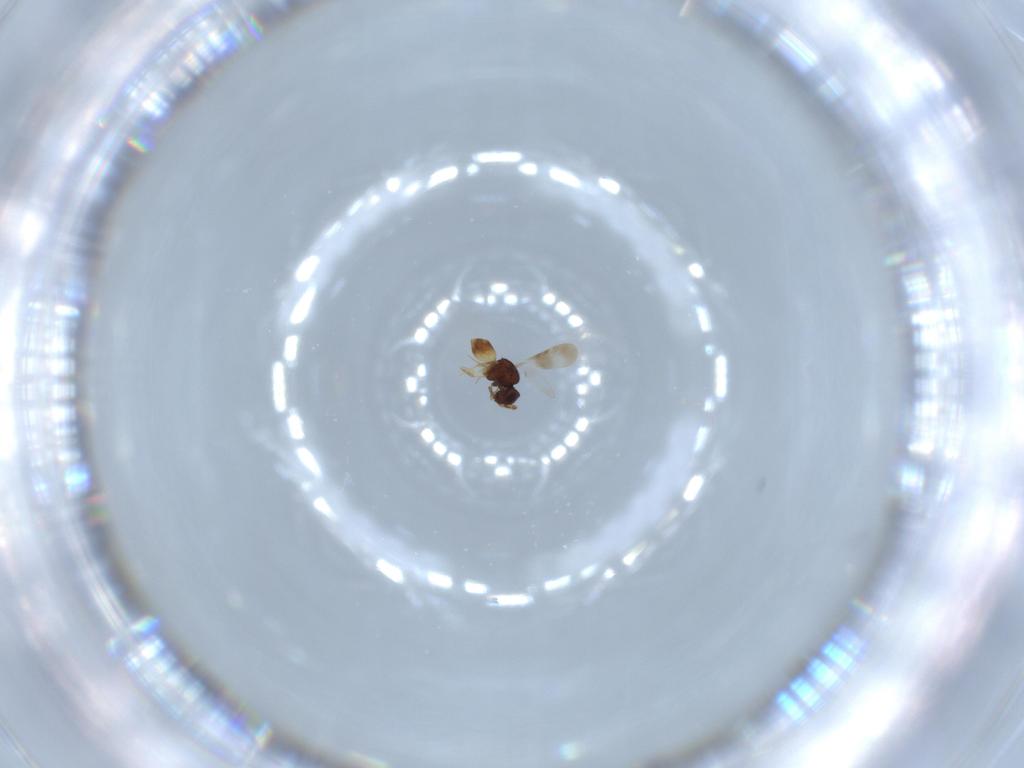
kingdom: Animalia
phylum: Arthropoda
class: Insecta
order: Hymenoptera
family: Braconidae
